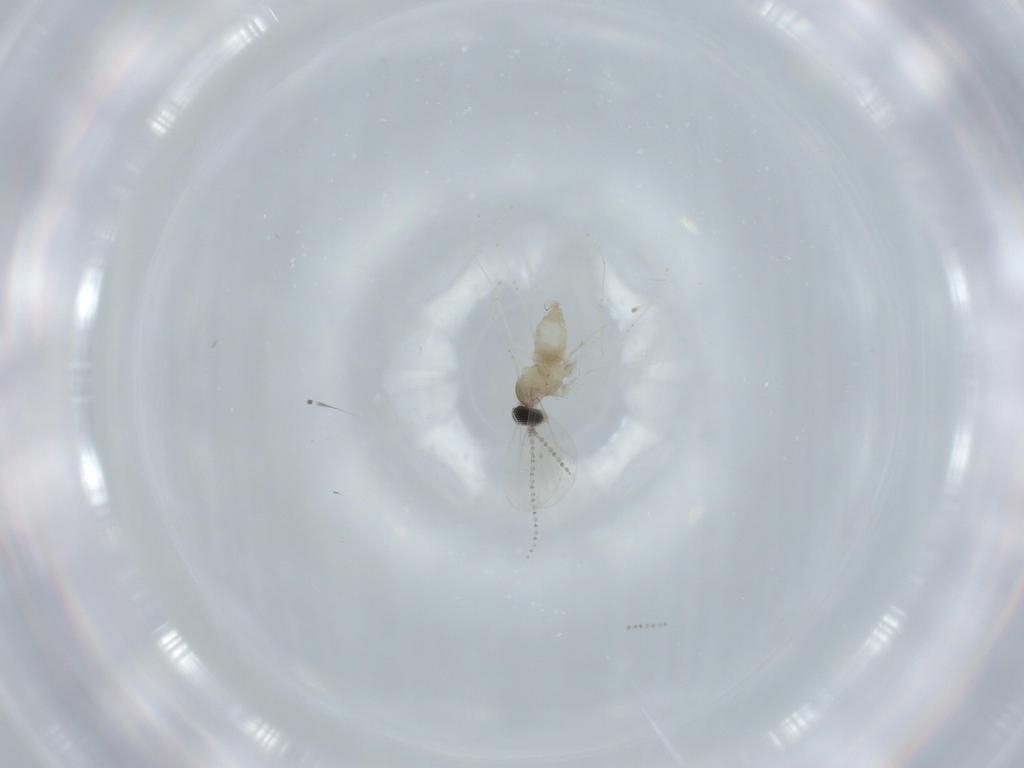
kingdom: Animalia
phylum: Arthropoda
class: Insecta
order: Diptera
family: Cecidomyiidae
